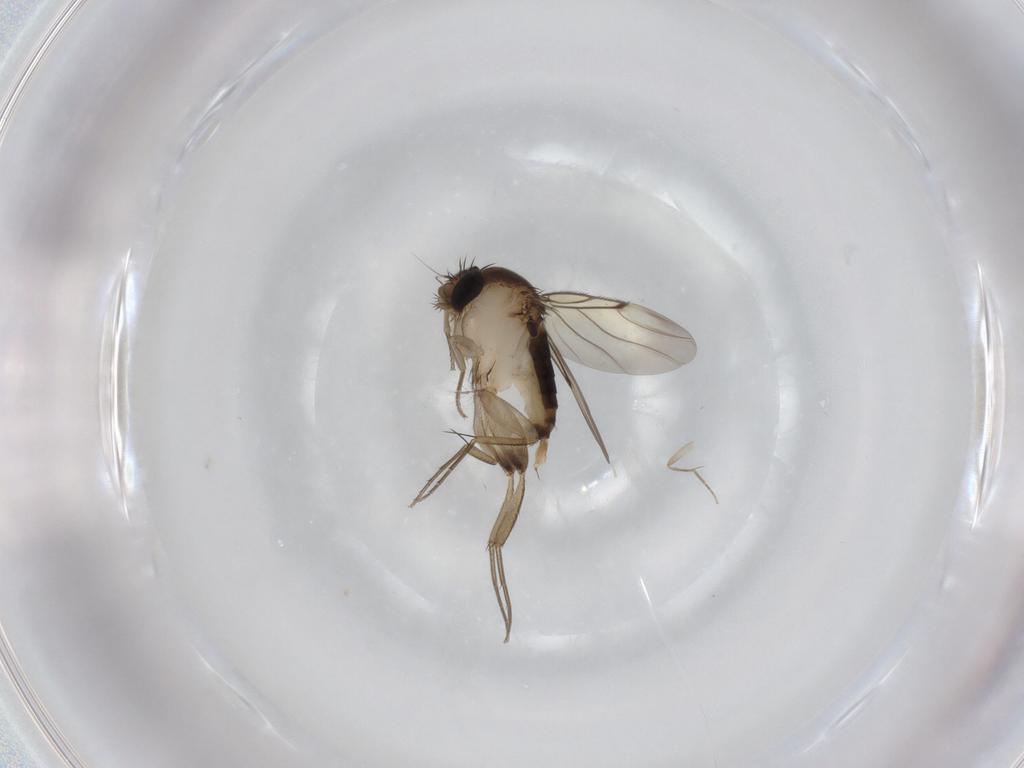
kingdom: Animalia
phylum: Arthropoda
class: Insecta
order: Diptera
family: Phoridae
